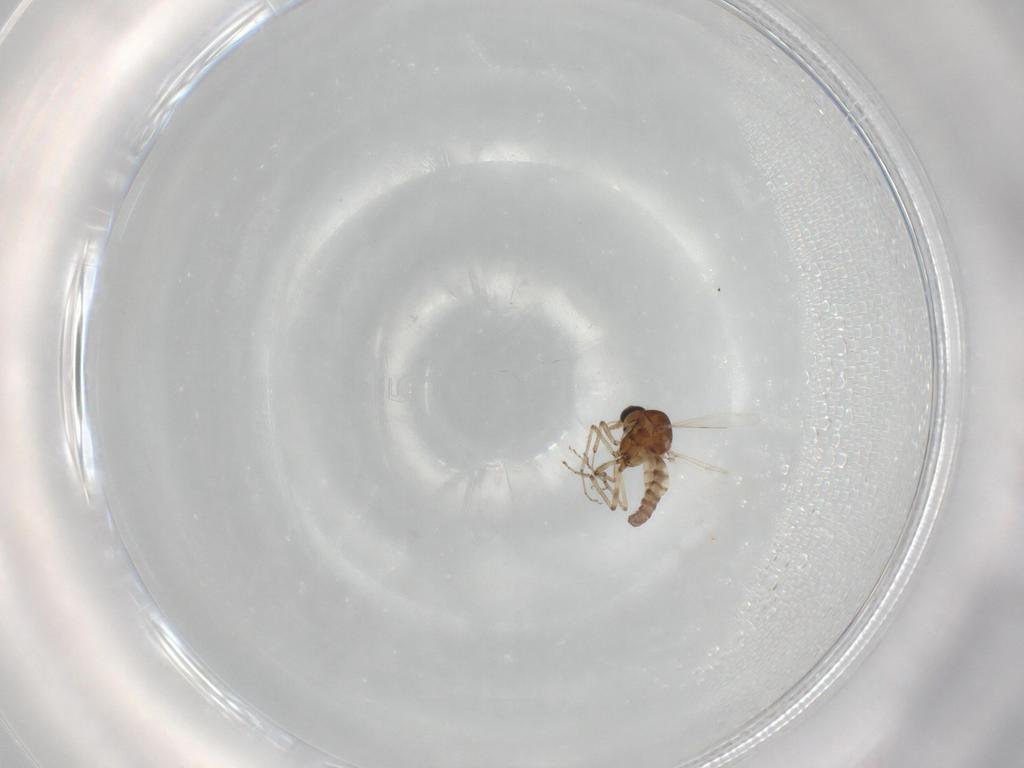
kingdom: Animalia
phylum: Arthropoda
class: Insecta
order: Diptera
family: Ceratopogonidae
